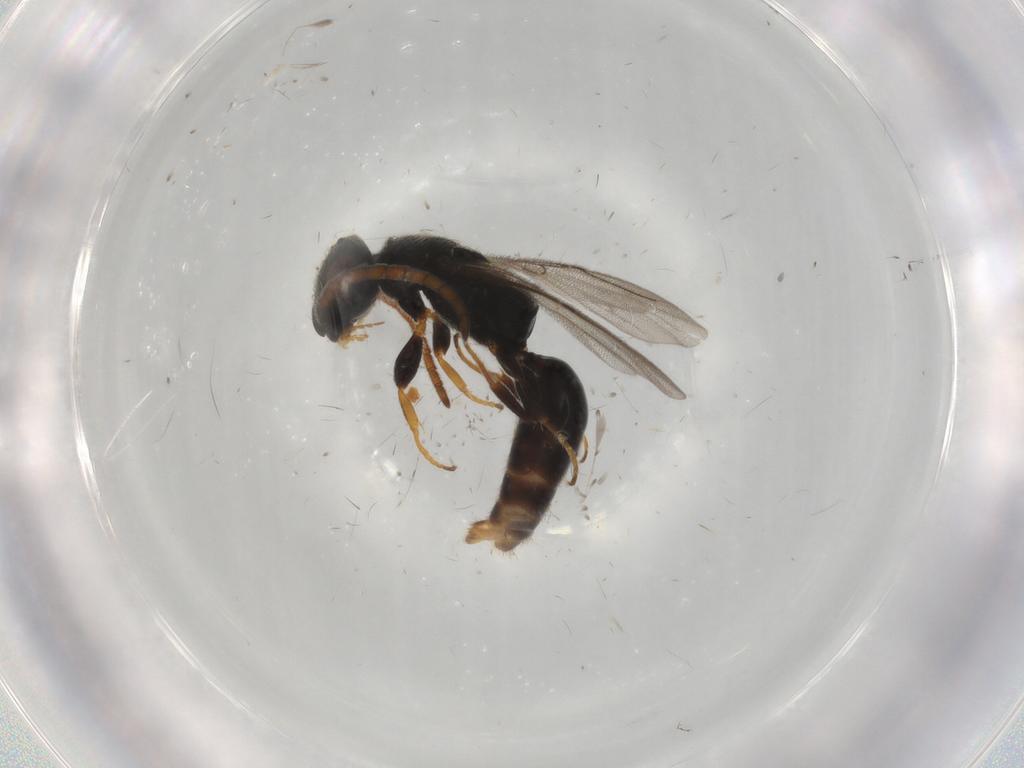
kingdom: Animalia
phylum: Arthropoda
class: Insecta
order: Hymenoptera
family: Bethylidae
